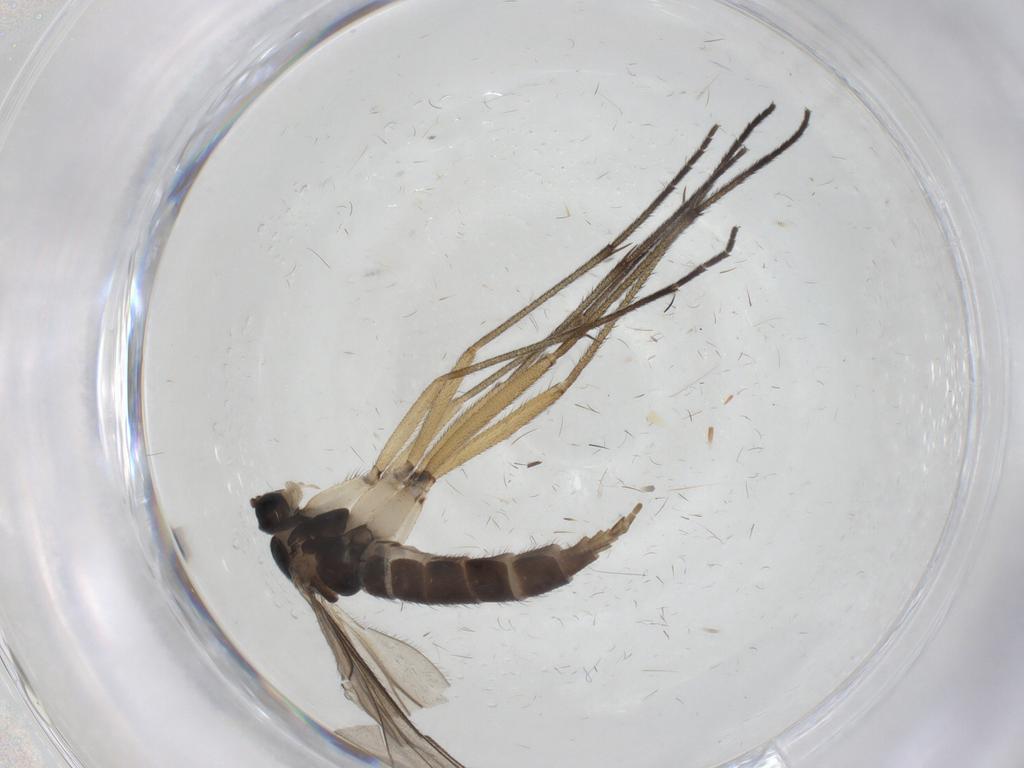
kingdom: Animalia
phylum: Arthropoda
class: Insecta
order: Diptera
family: Sciaridae
